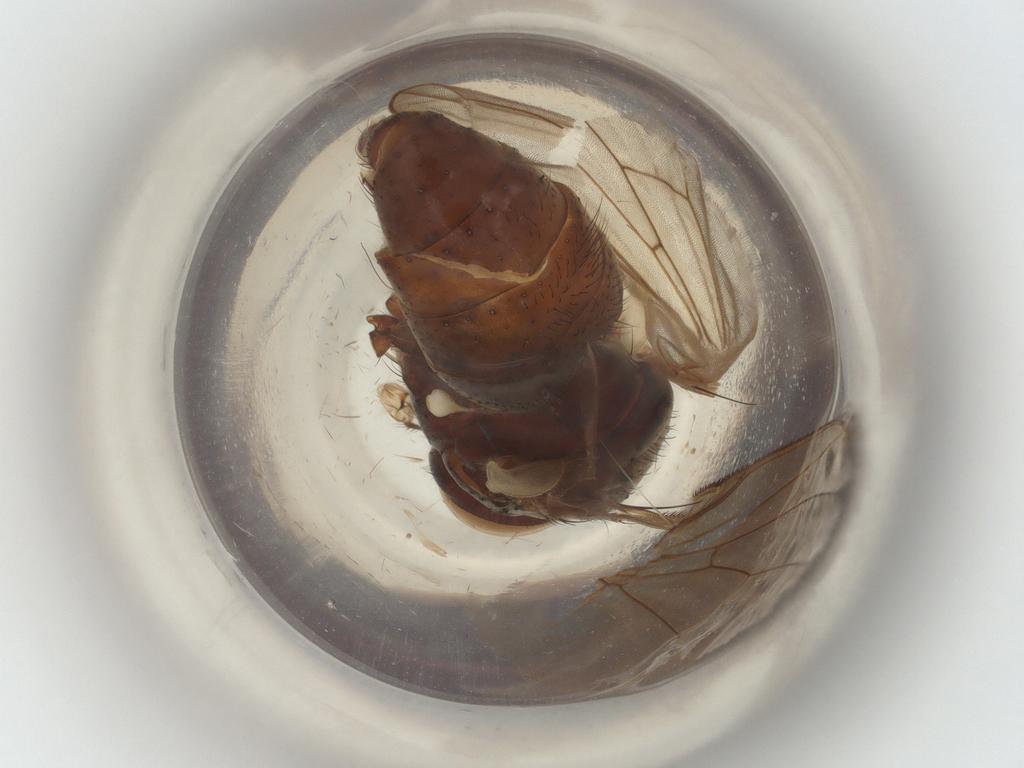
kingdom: Animalia
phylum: Arthropoda
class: Insecta
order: Diptera
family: Muscidae
